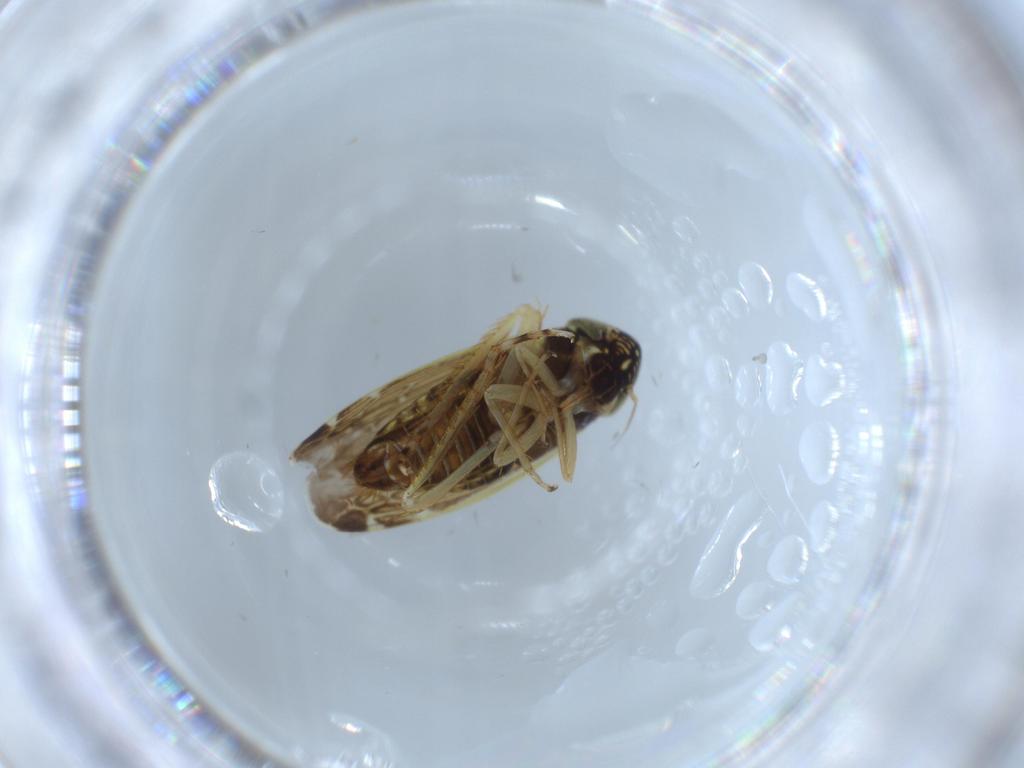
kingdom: Animalia
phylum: Arthropoda
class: Insecta
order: Hemiptera
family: Cicadellidae
